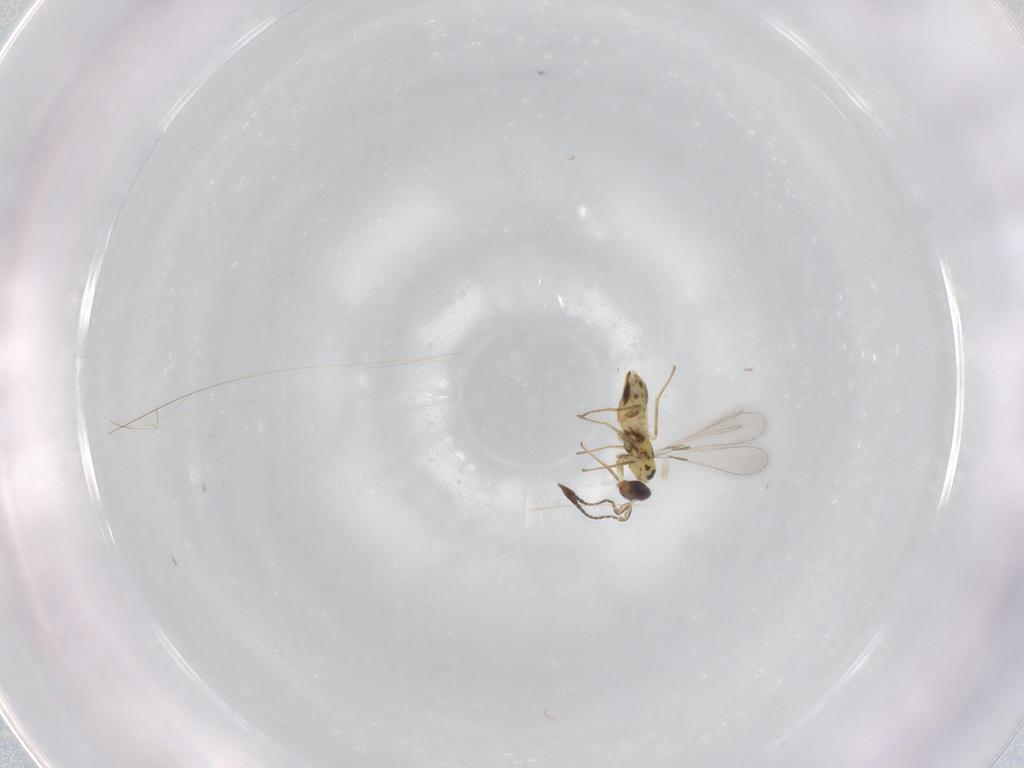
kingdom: Animalia
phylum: Arthropoda
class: Insecta
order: Hymenoptera
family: Mymaridae
